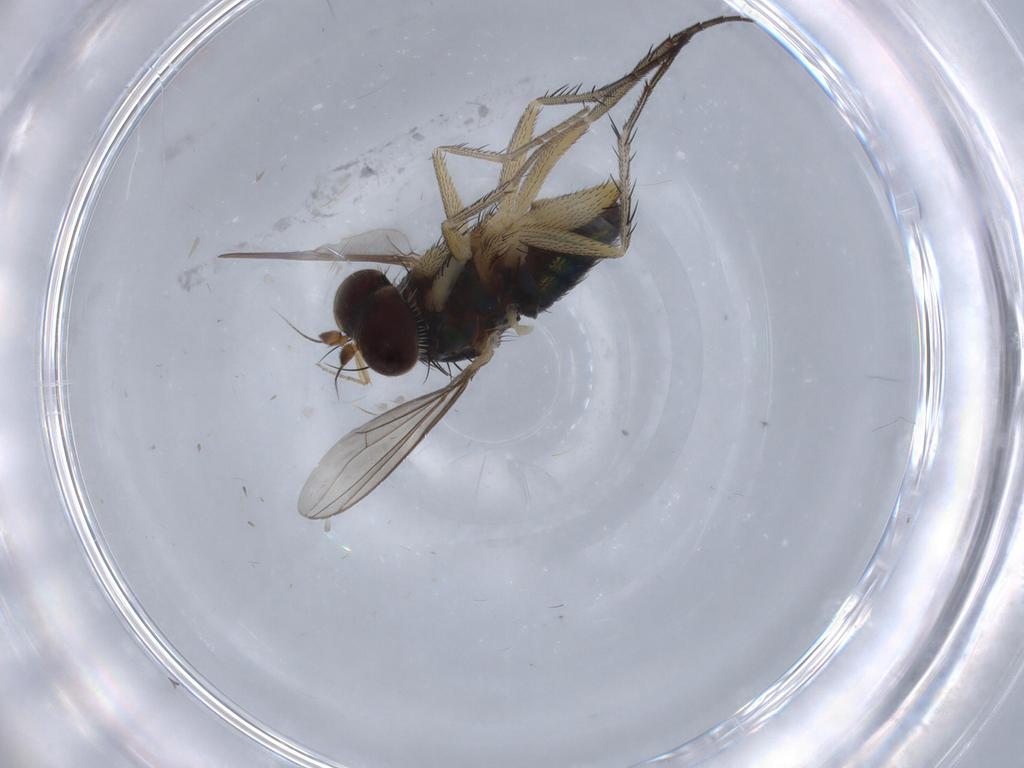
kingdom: Animalia
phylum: Arthropoda
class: Insecta
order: Diptera
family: Dolichopodidae
